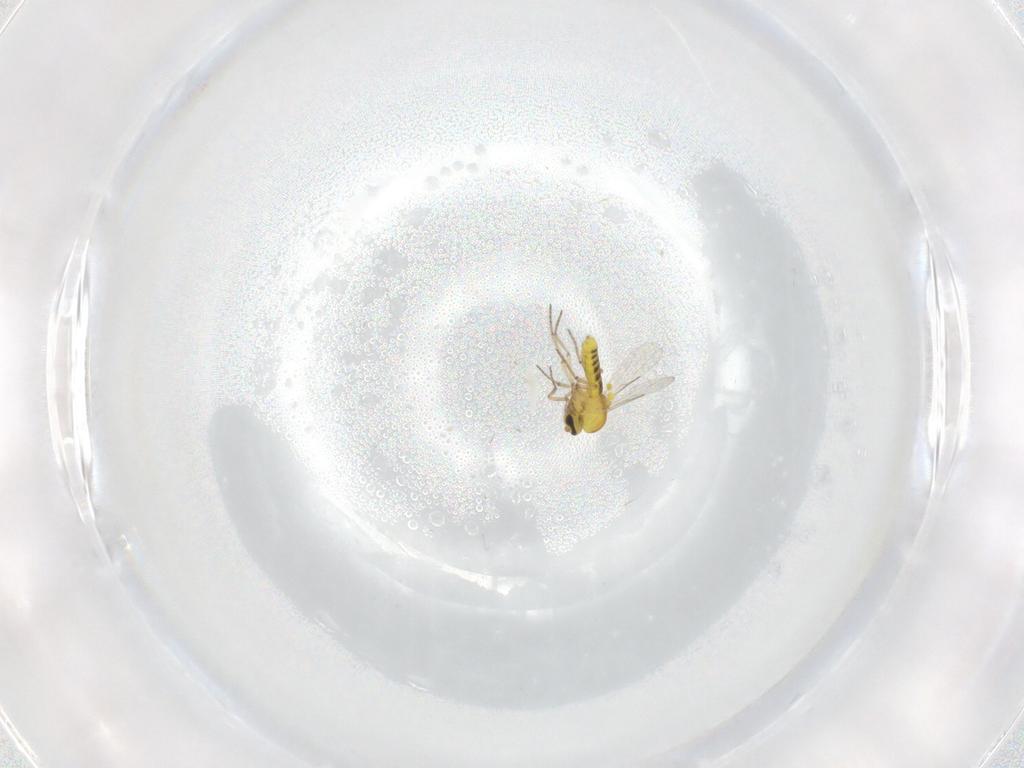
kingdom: Animalia
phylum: Arthropoda
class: Insecta
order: Diptera
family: Ceratopogonidae
